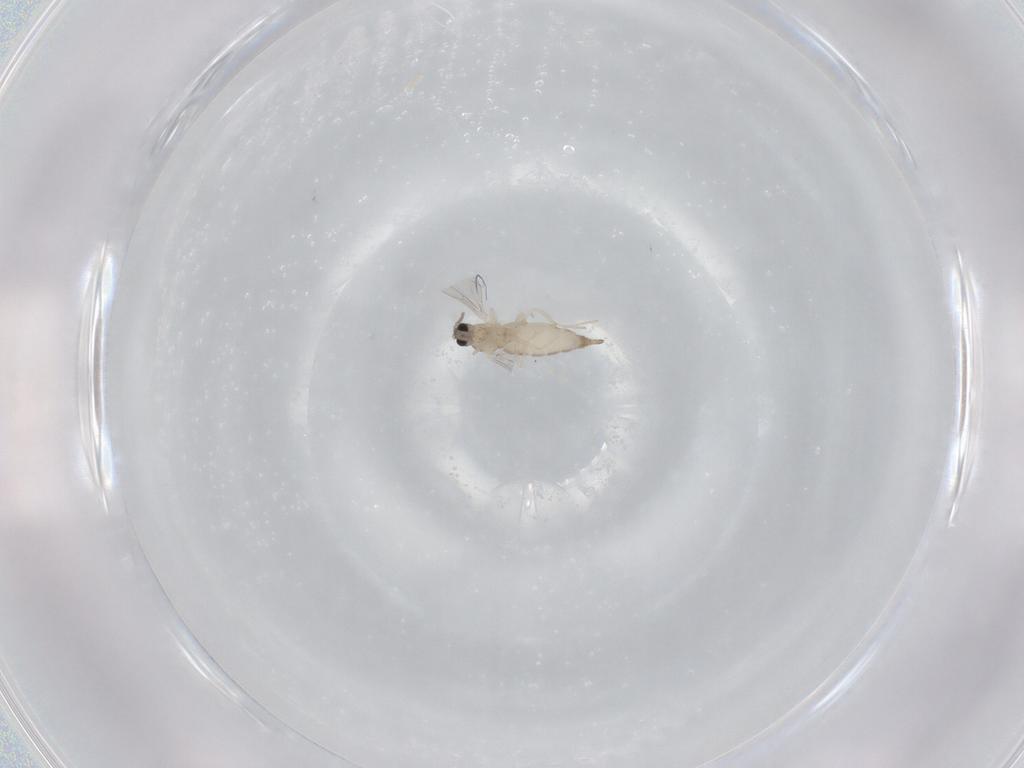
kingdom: Animalia
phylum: Arthropoda
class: Insecta
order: Diptera
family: Cecidomyiidae
